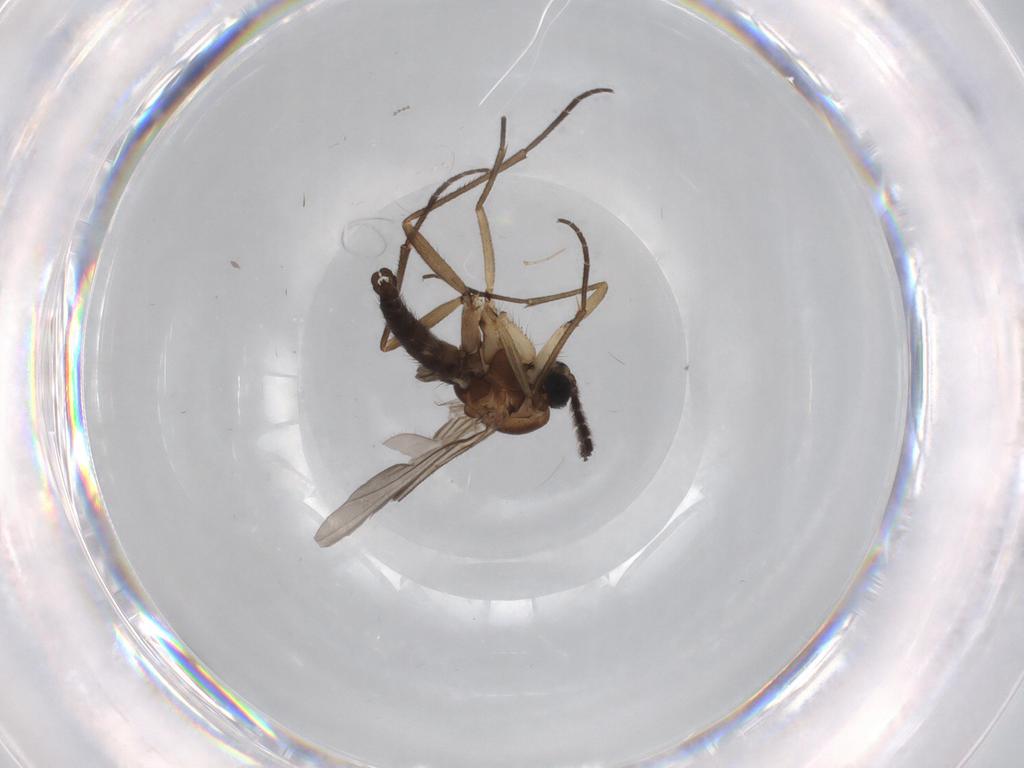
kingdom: Animalia
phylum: Arthropoda
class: Insecta
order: Diptera
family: Sciaridae
